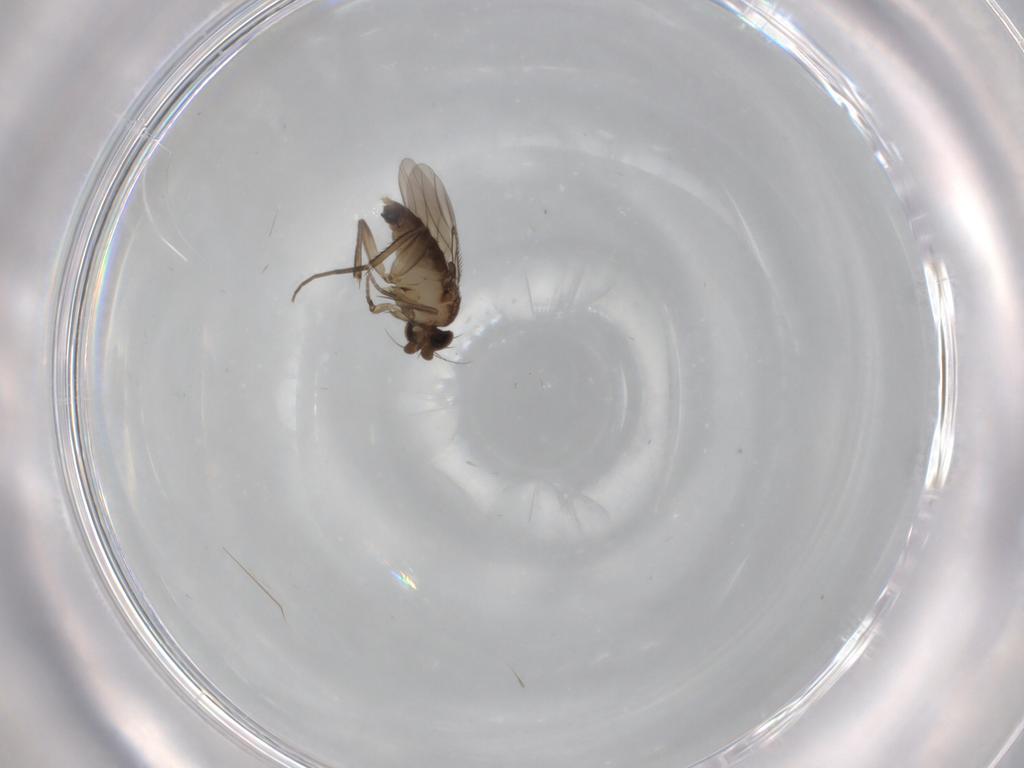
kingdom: Animalia
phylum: Arthropoda
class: Insecta
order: Diptera
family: Phoridae
